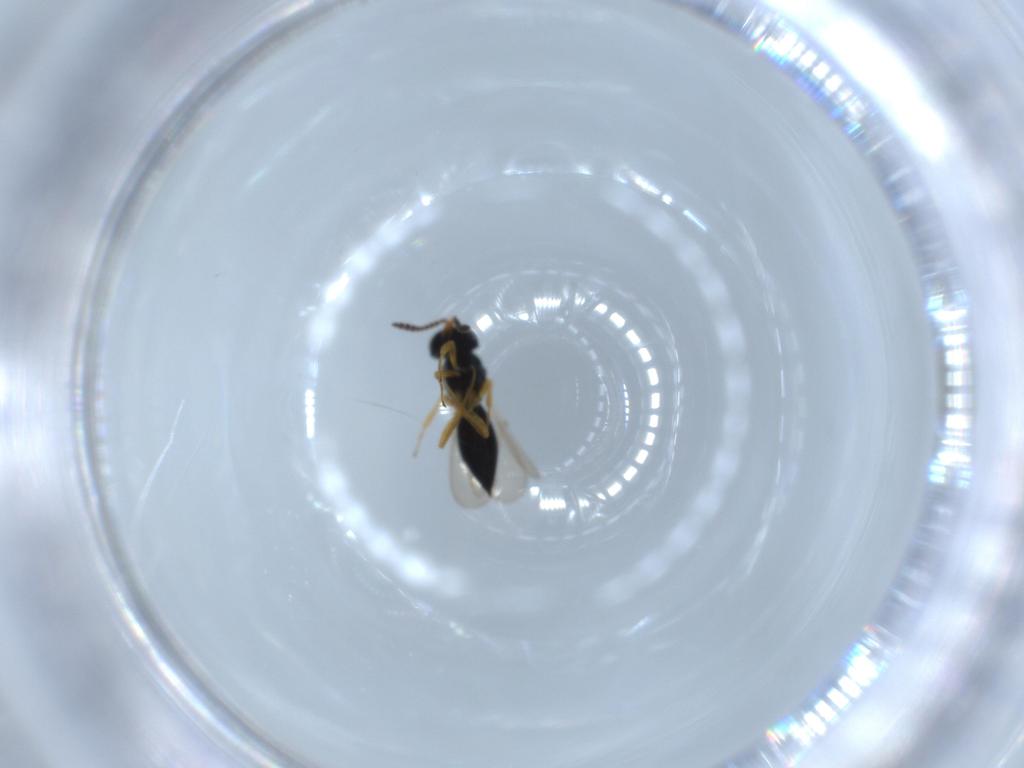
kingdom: Animalia
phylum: Arthropoda
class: Insecta
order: Hymenoptera
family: Scelionidae
